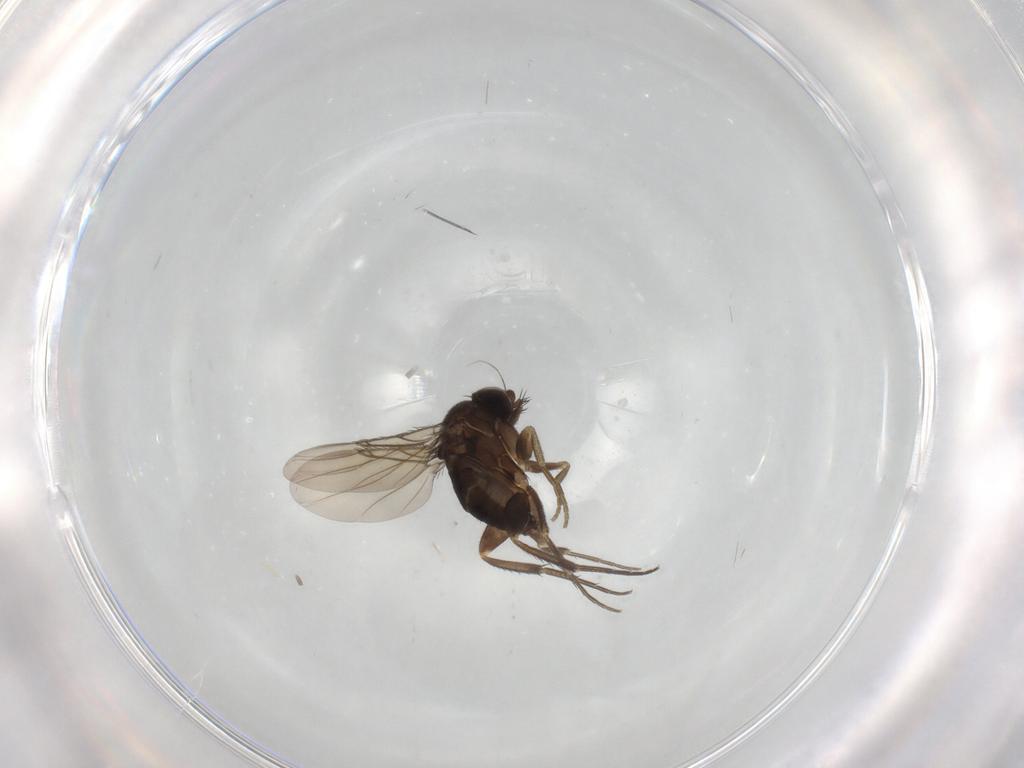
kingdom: Animalia
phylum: Arthropoda
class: Insecta
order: Diptera
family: Phoridae
